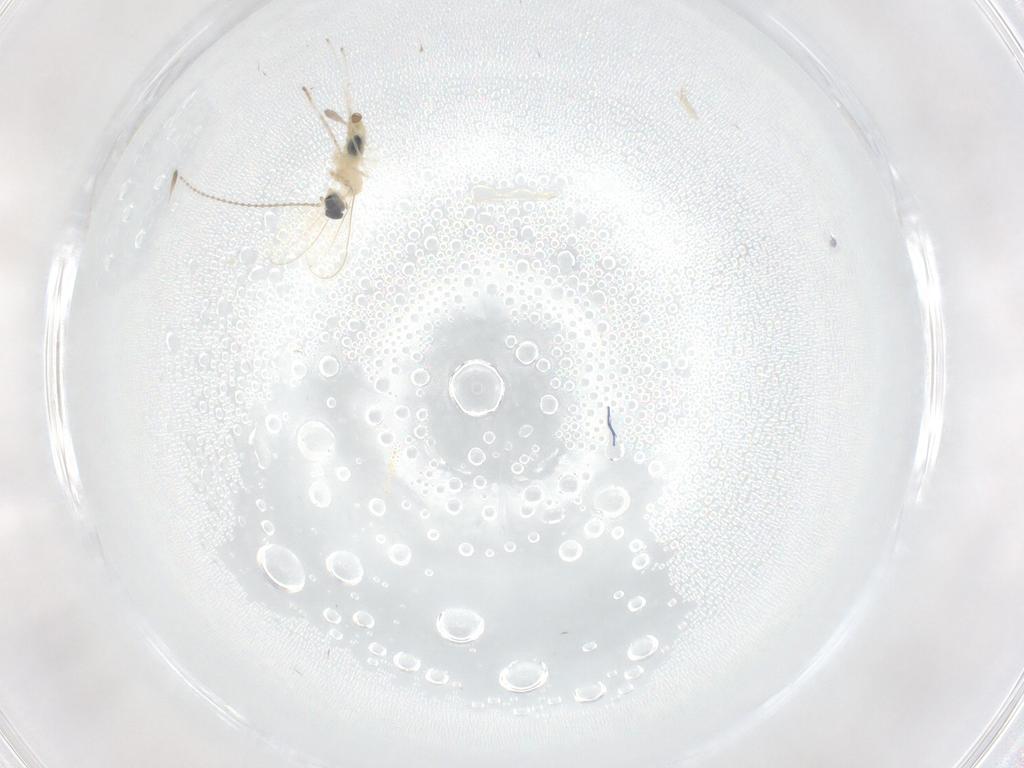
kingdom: Animalia
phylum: Arthropoda
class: Insecta
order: Diptera
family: Cecidomyiidae
